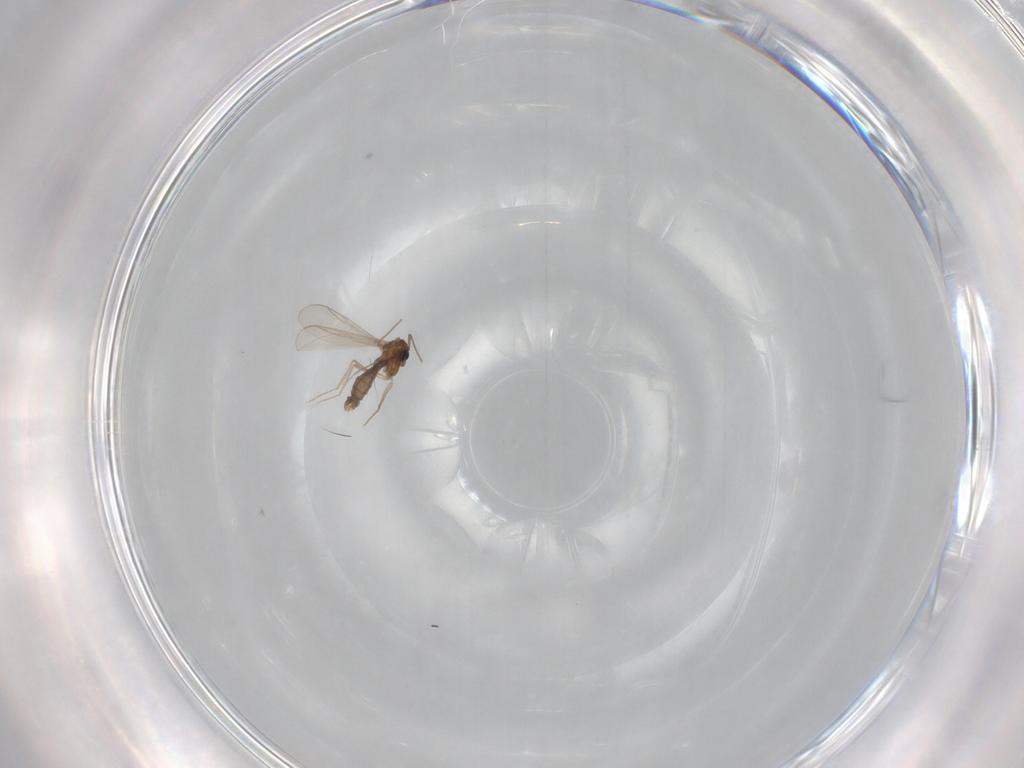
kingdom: Animalia
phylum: Arthropoda
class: Insecta
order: Diptera
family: Chironomidae
